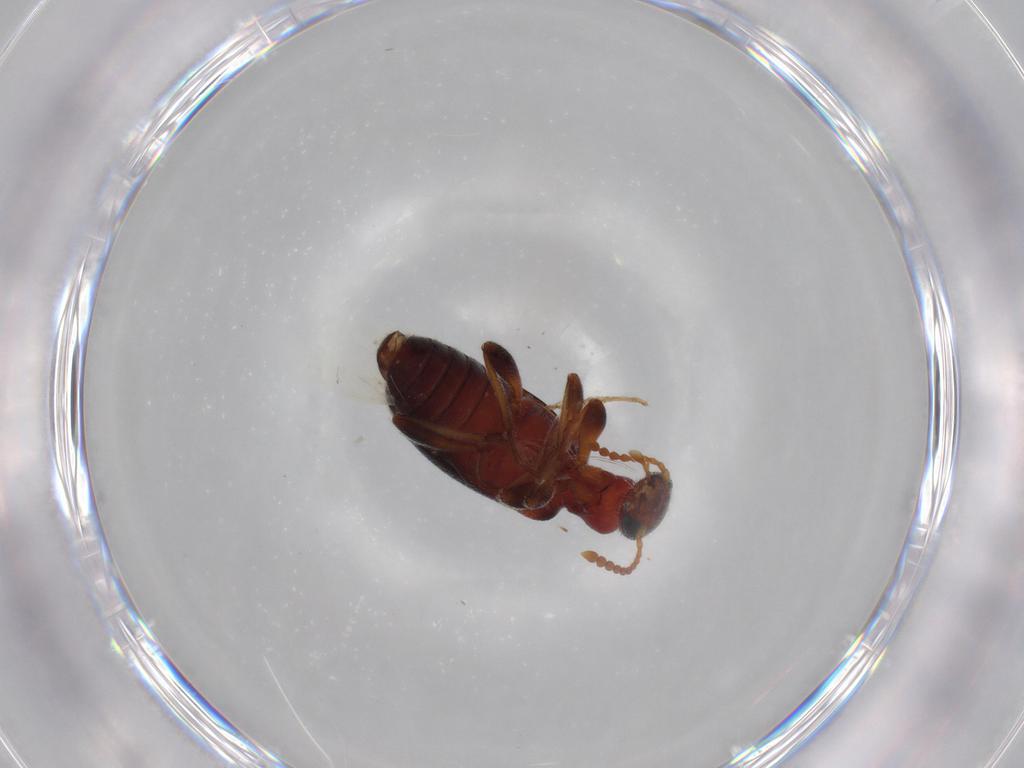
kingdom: Animalia
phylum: Arthropoda
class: Insecta
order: Coleoptera
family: Anthicidae
